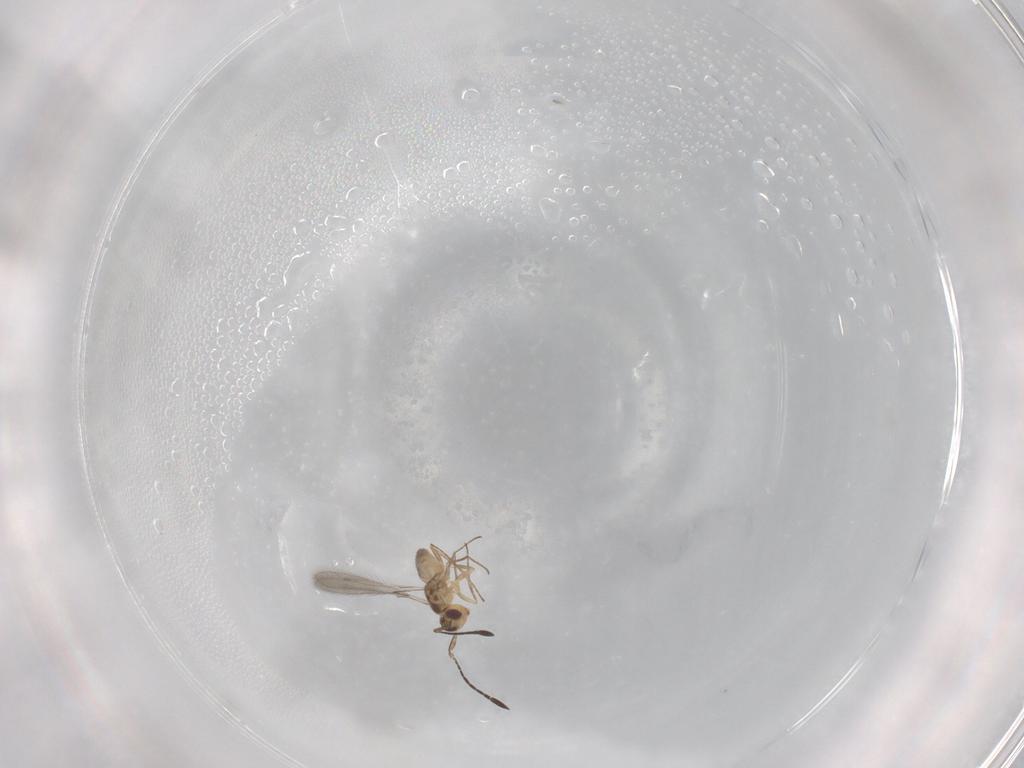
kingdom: Animalia
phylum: Arthropoda
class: Insecta
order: Hymenoptera
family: Mymaridae
